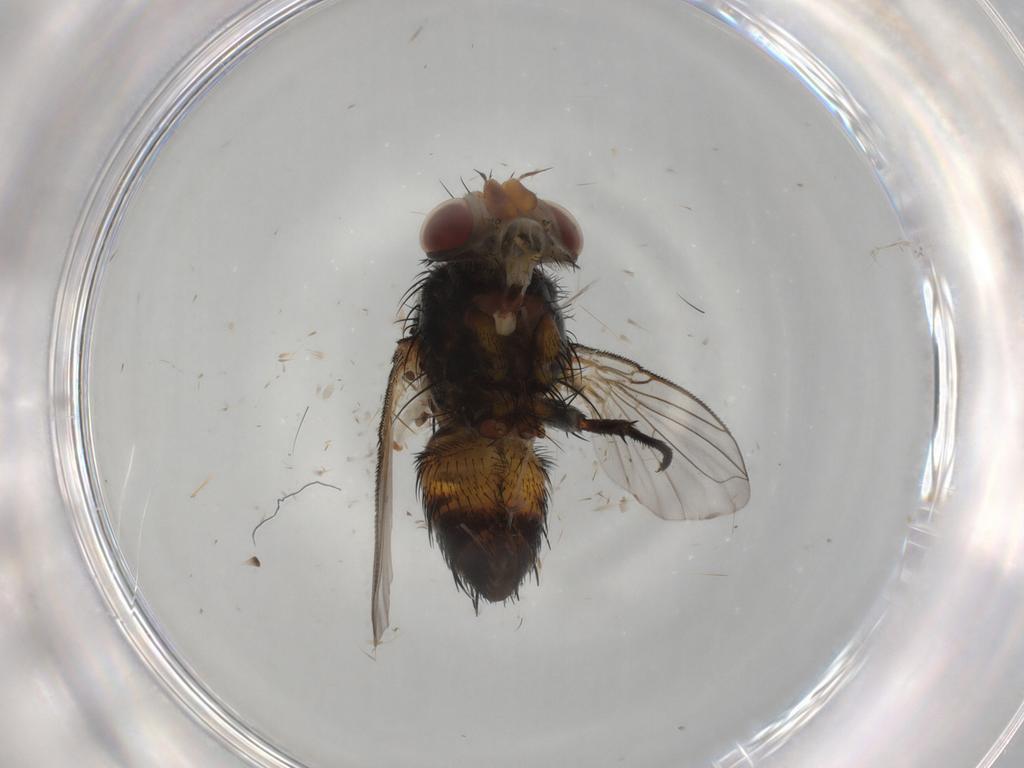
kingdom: Animalia
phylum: Arthropoda
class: Insecta
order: Diptera
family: Tachinidae
